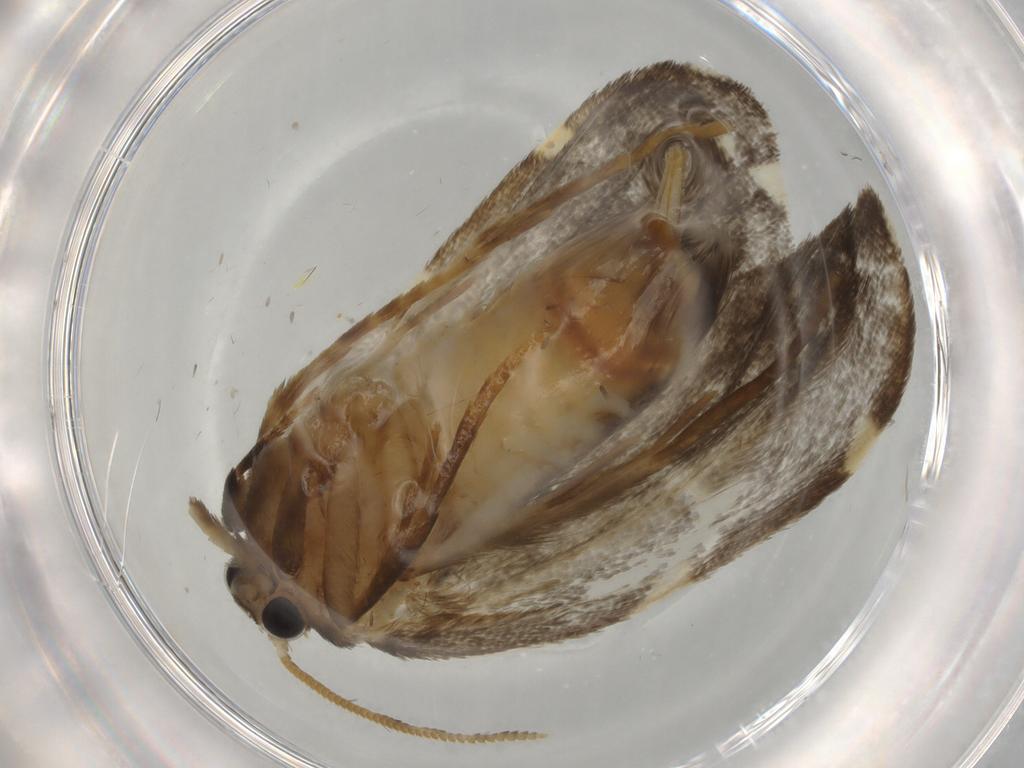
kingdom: Animalia
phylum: Arthropoda
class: Insecta
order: Lepidoptera
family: Psychidae
